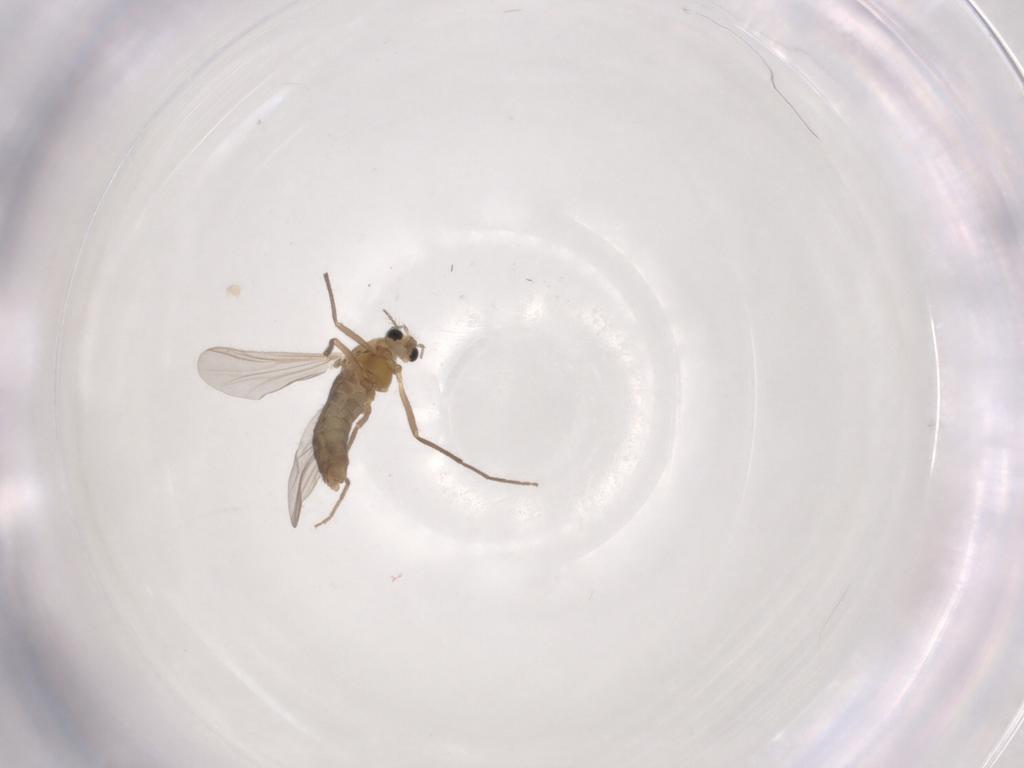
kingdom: Animalia
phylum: Arthropoda
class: Insecta
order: Diptera
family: Chironomidae
